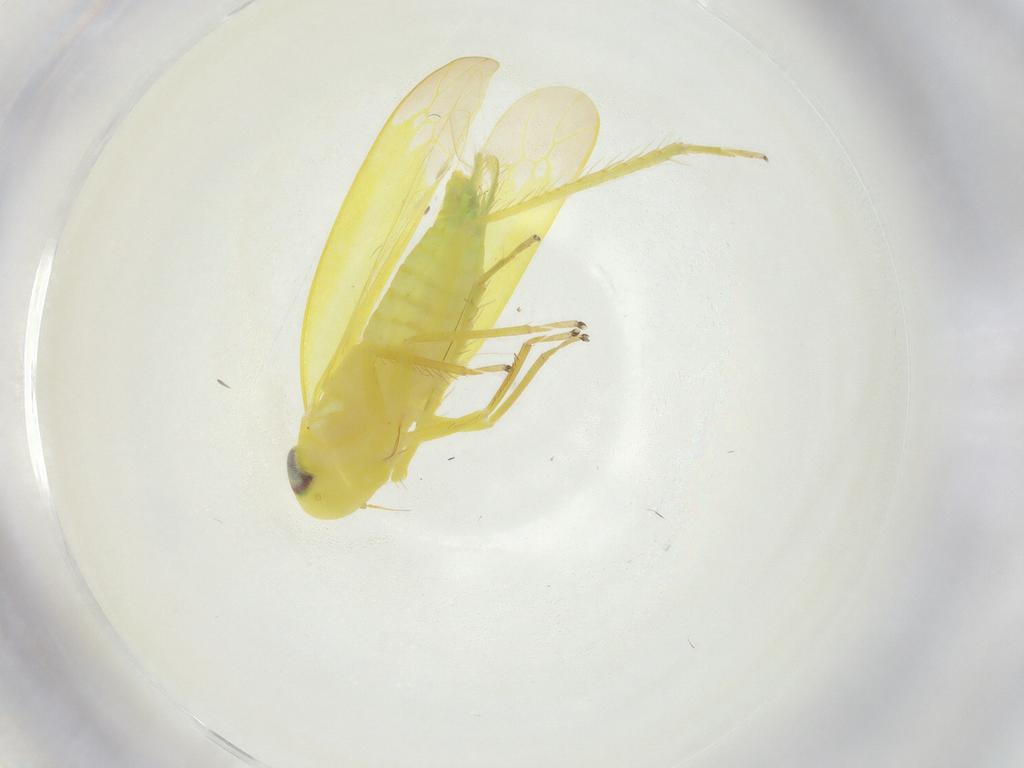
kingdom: Animalia
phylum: Arthropoda
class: Insecta
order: Hemiptera
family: Cicadellidae
